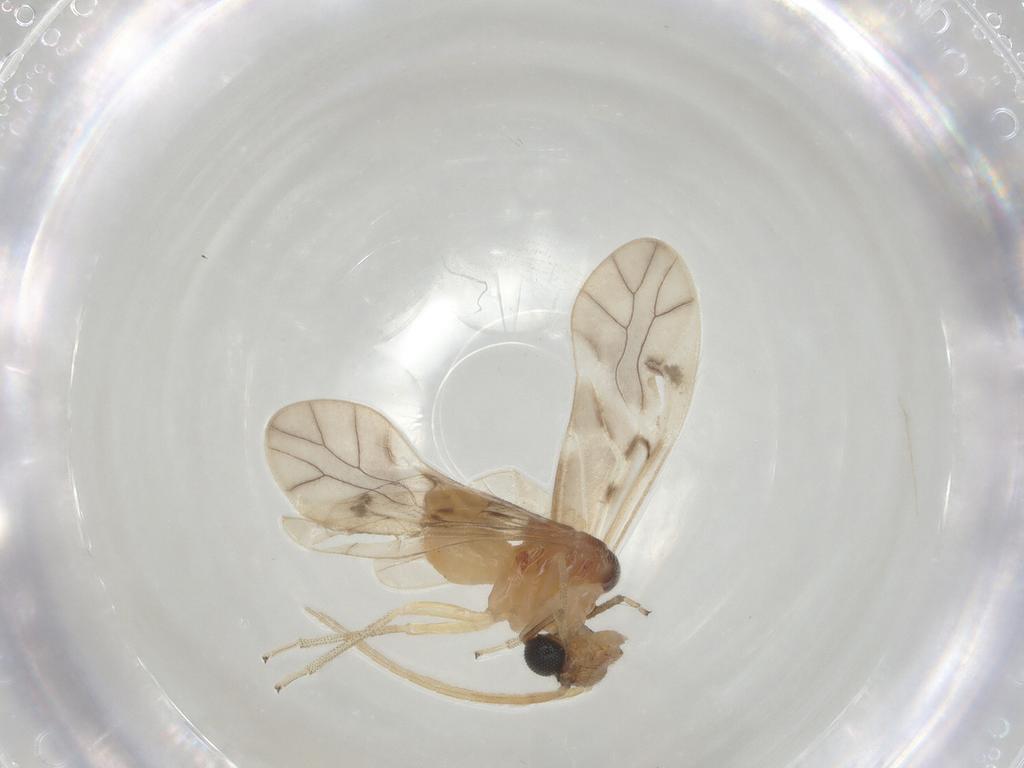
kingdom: Animalia
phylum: Arthropoda
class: Insecta
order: Psocodea
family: Caeciliusidae
